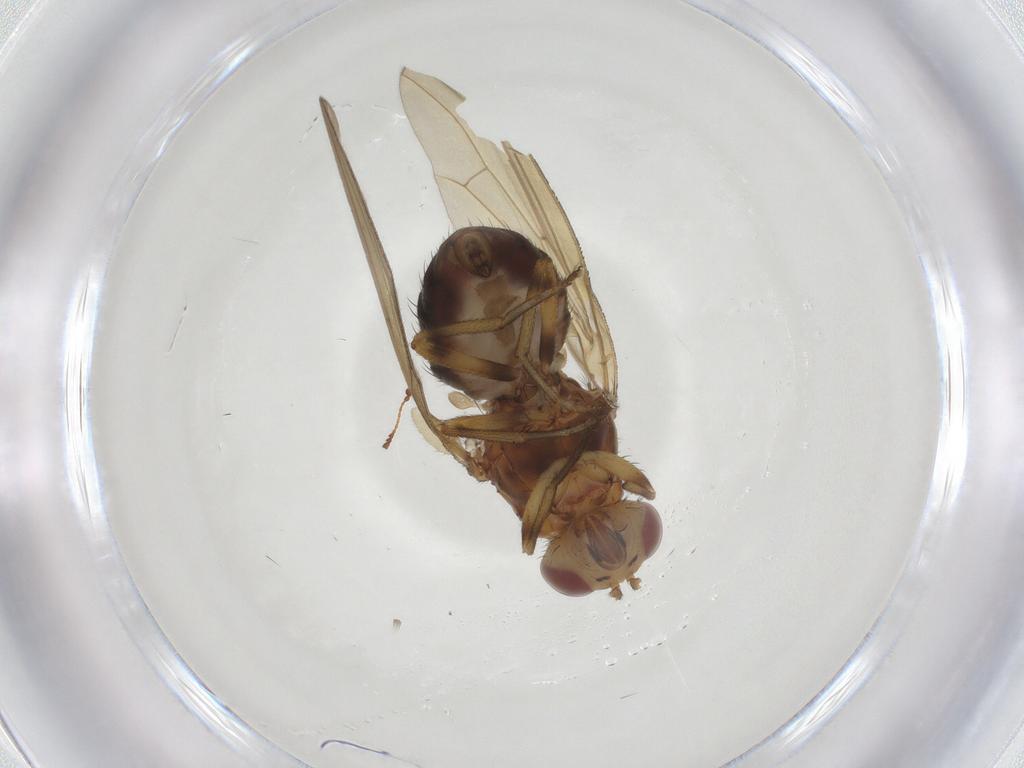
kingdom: Animalia
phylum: Arthropoda
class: Insecta
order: Diptera
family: Lauxaniidae
